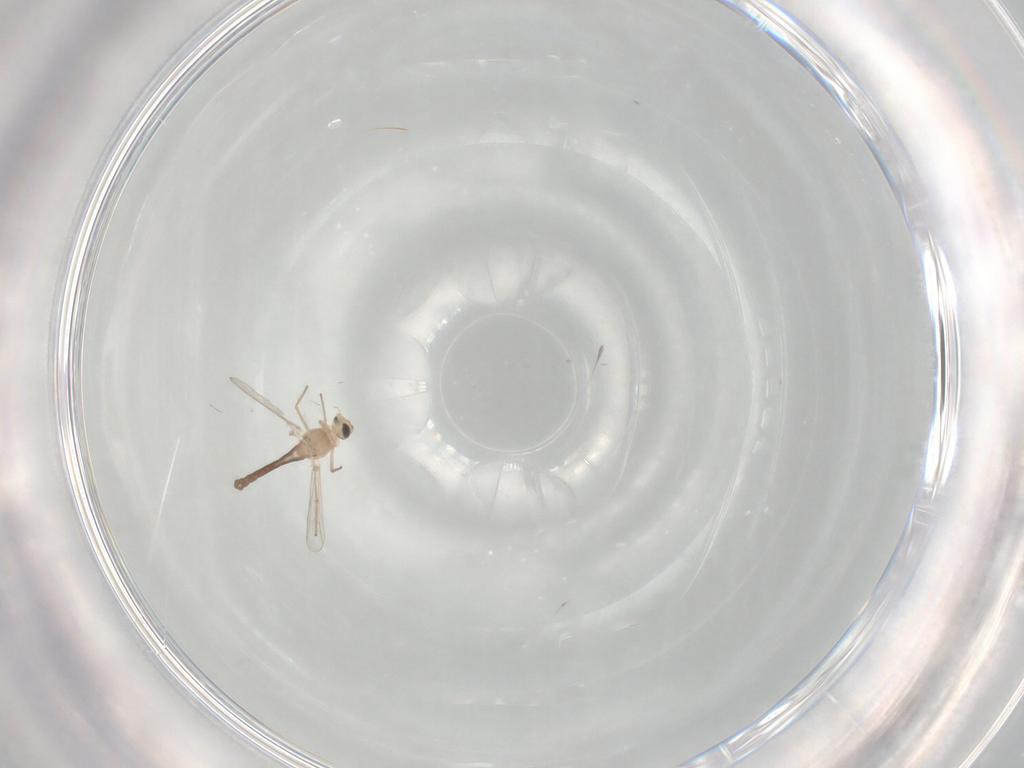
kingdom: Animalia
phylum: Arthropoda
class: Insecta
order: Diptera
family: Chironomidae
